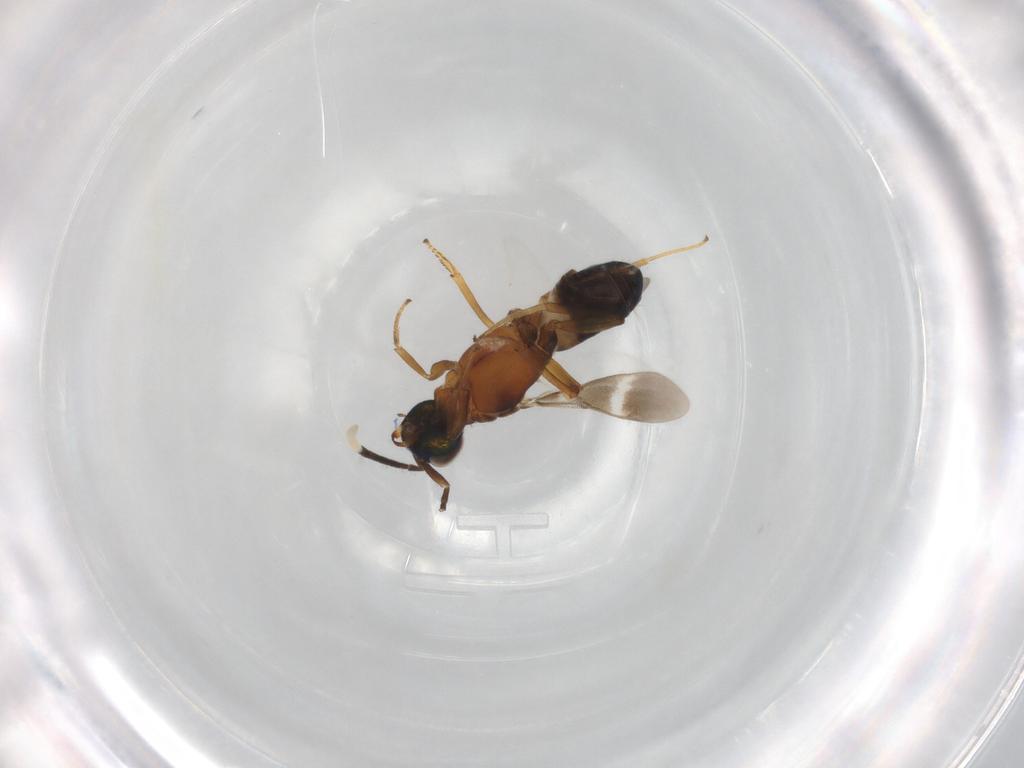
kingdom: Animalia
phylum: Arthropoda
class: Insecta
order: Hymenoptera
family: Eupelmidae
